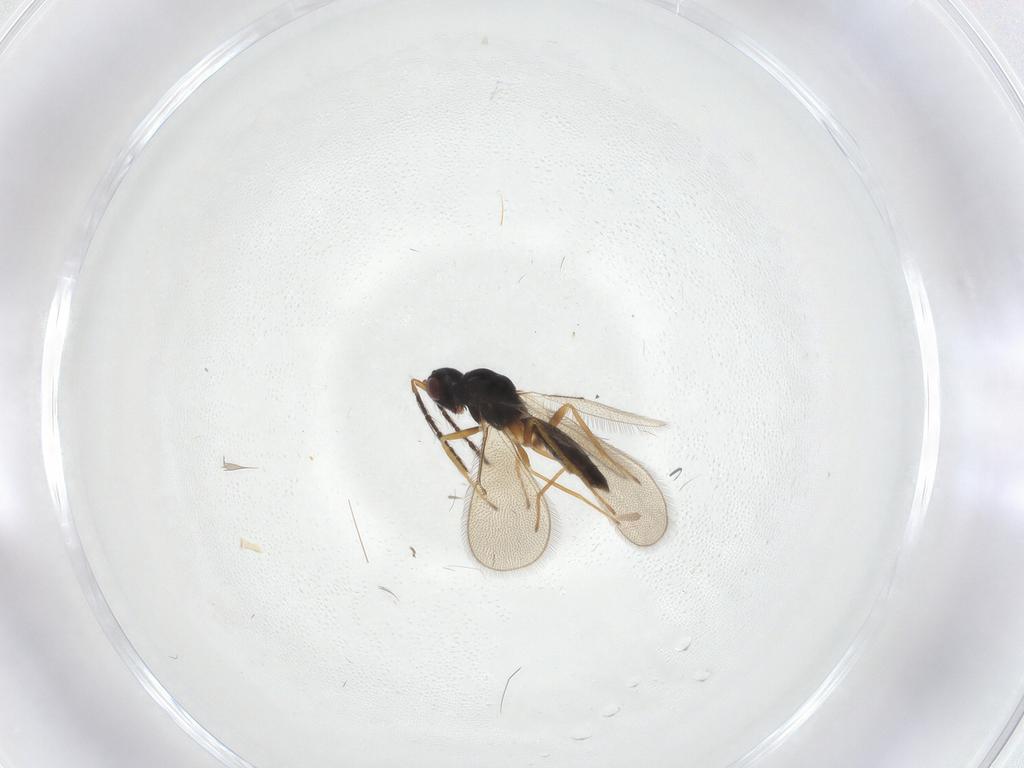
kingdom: Animalia
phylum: Arthropoda
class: Insecta
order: Hymenoptera
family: Eulophidae
